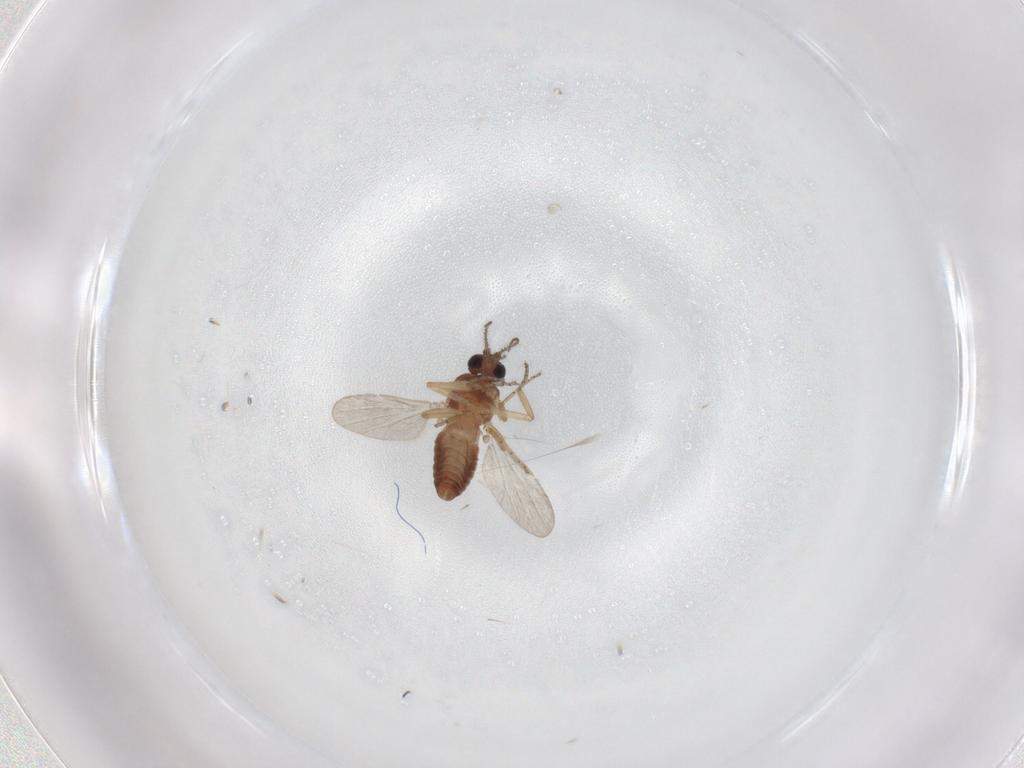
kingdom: Animalia
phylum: Arthropoda
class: Insecta
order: Diptera
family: Ceratopogonidae
